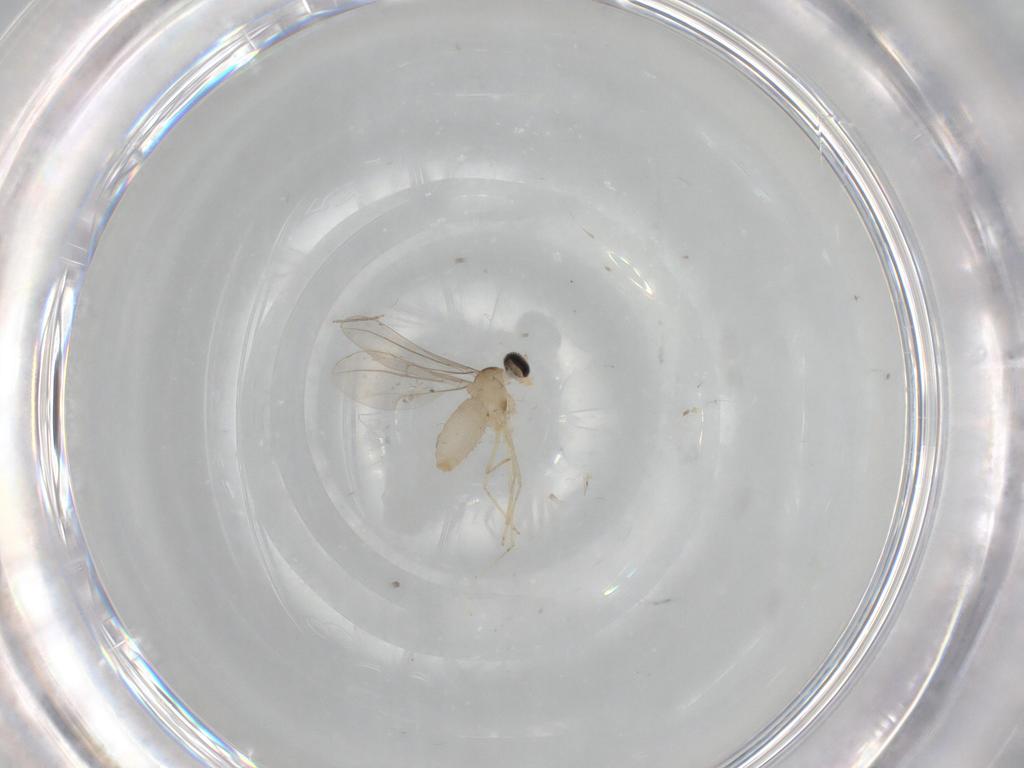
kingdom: Animalia
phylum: Arthropoda
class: Insecta
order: Diptera
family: Cecidomyiidae
